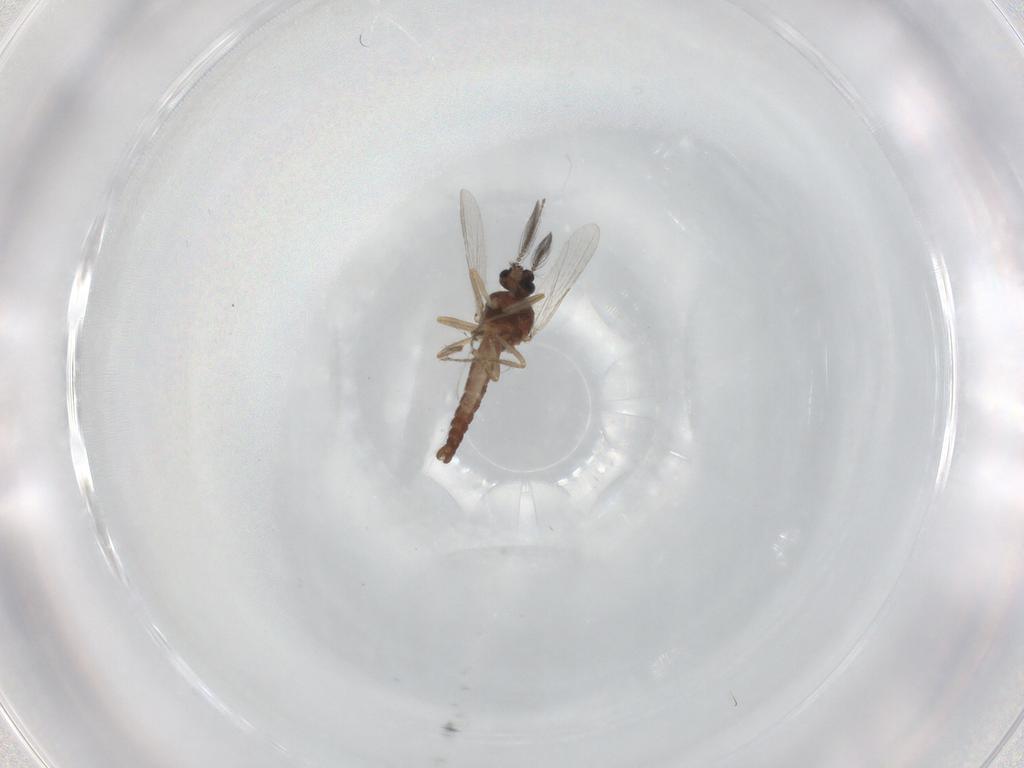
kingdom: Animalia
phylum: Arthropoda
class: Insecta
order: Diptera
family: Ceratopogonidae
